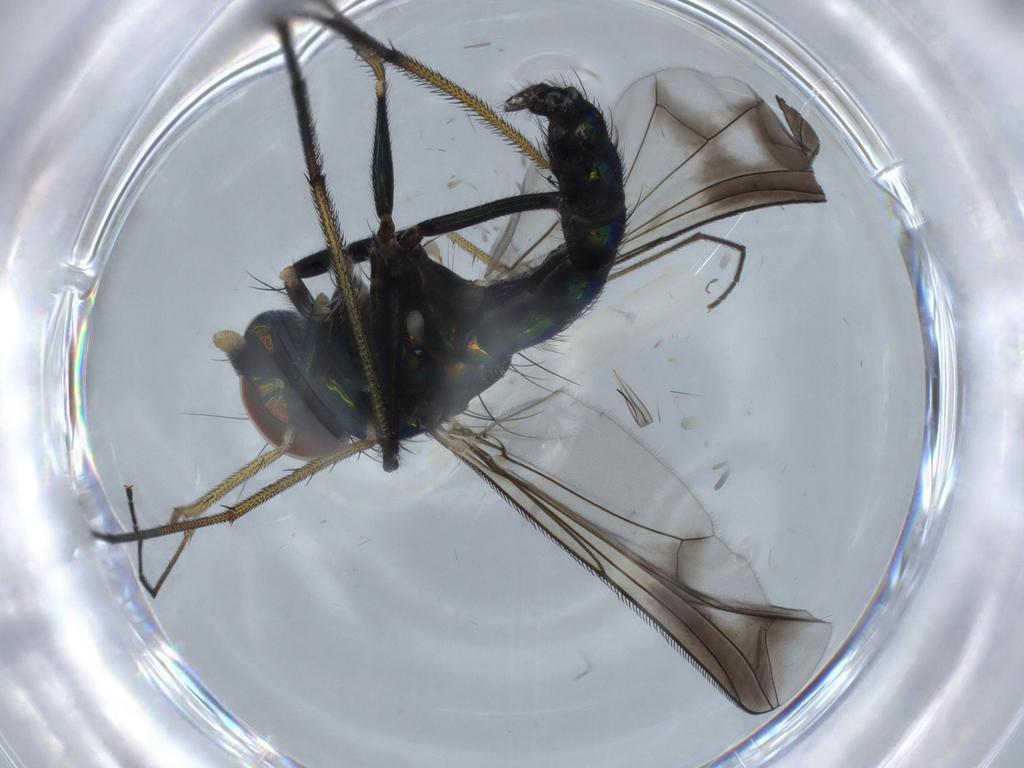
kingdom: Animalia
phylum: Arthropoda
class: Insecta
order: Diptera
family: Dolichopodidae
